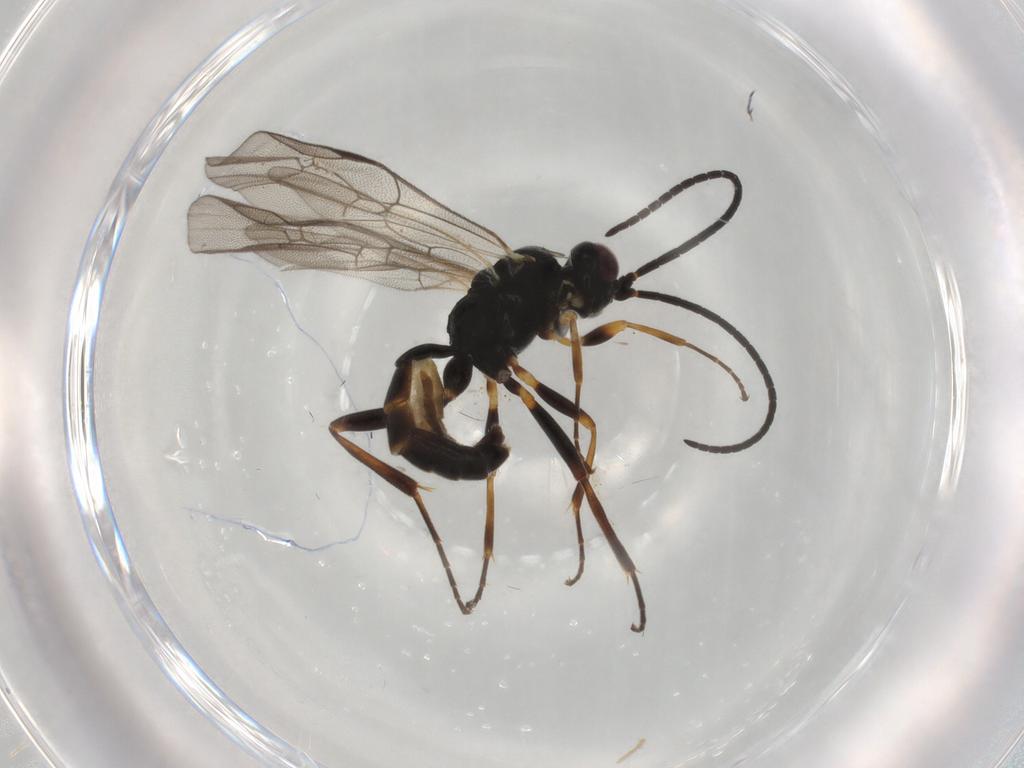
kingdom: Animalia
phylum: Arthropoda
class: Insecta
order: Hymenoptera
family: Ichneumonidae
